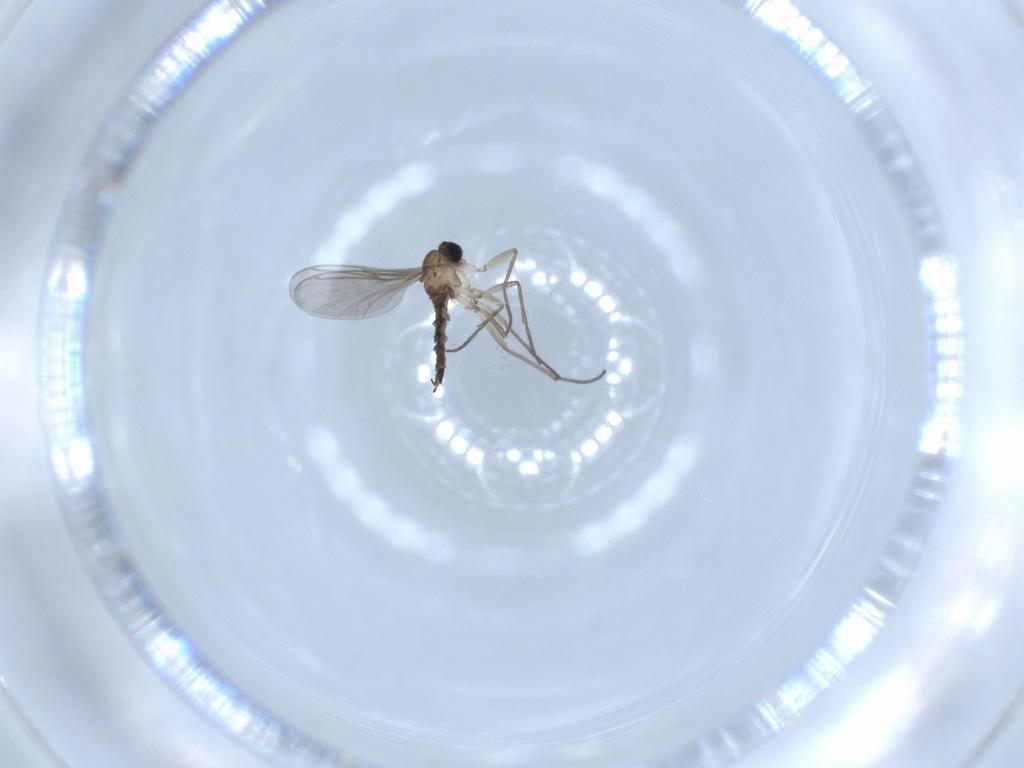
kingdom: Animalia
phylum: Arthropoda
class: Insecta
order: Diptera
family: Sciaridae
